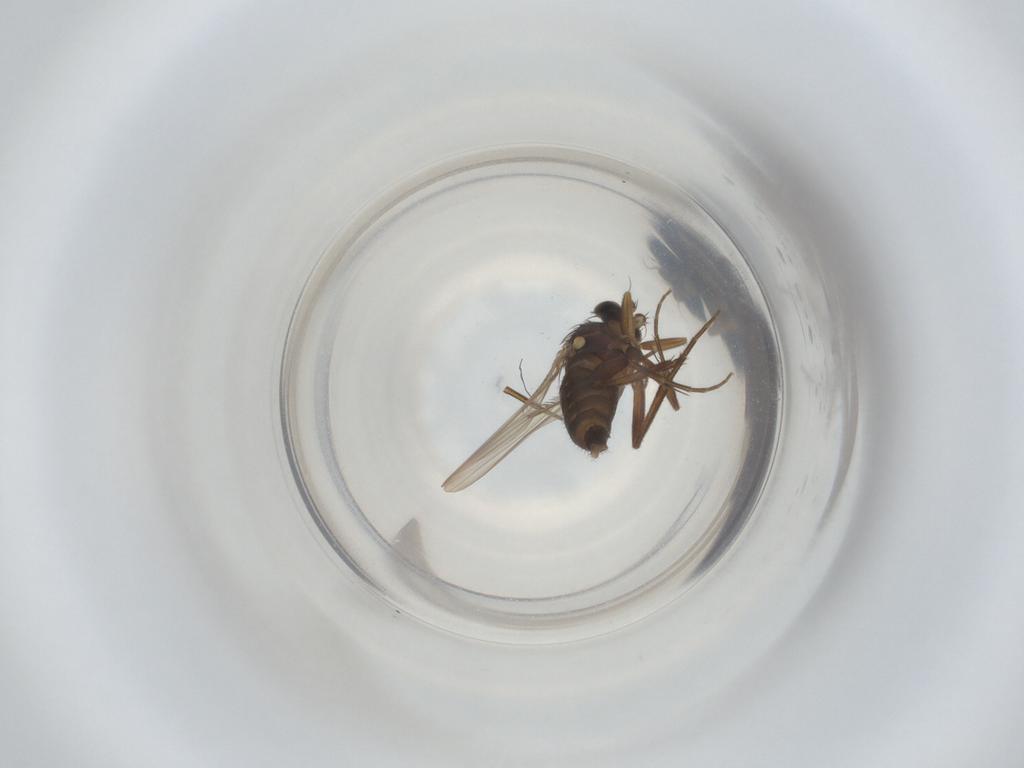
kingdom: Animalia
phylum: Arthropoda
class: Insecta
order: Diptera
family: Phoridae
